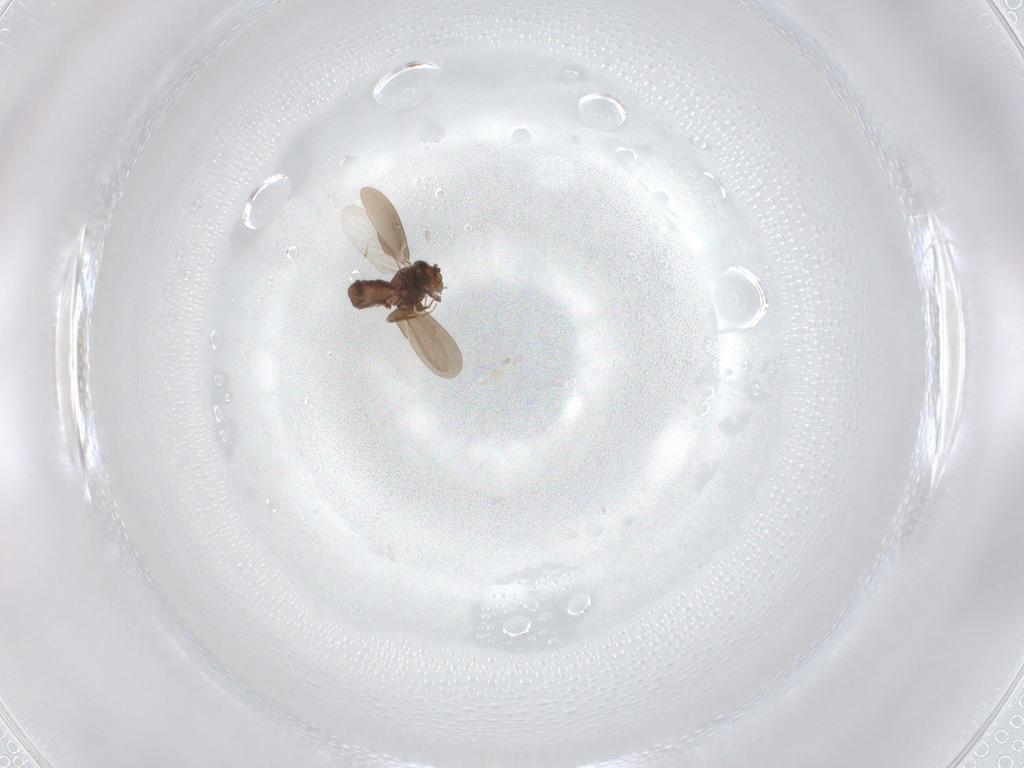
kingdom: Animalia
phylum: Arthropoda
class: Insecta
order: Psocodea
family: Psoquillidae
